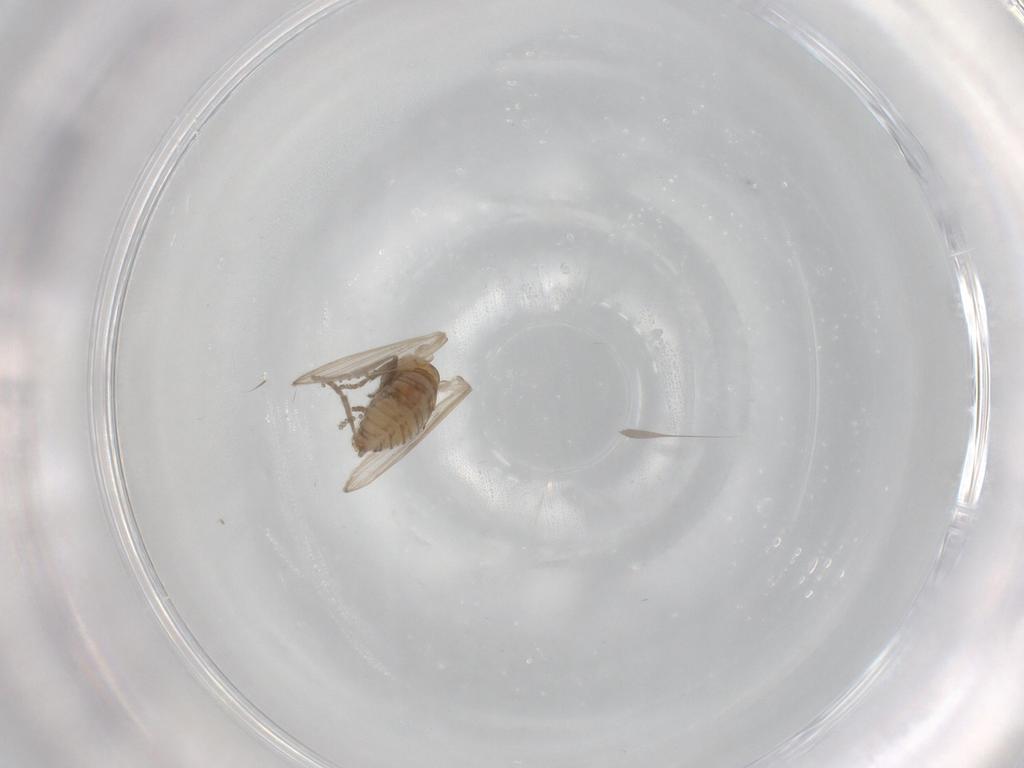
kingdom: Animalia
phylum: Arthropoda
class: Insecta
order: Diptera
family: Psychodidae
